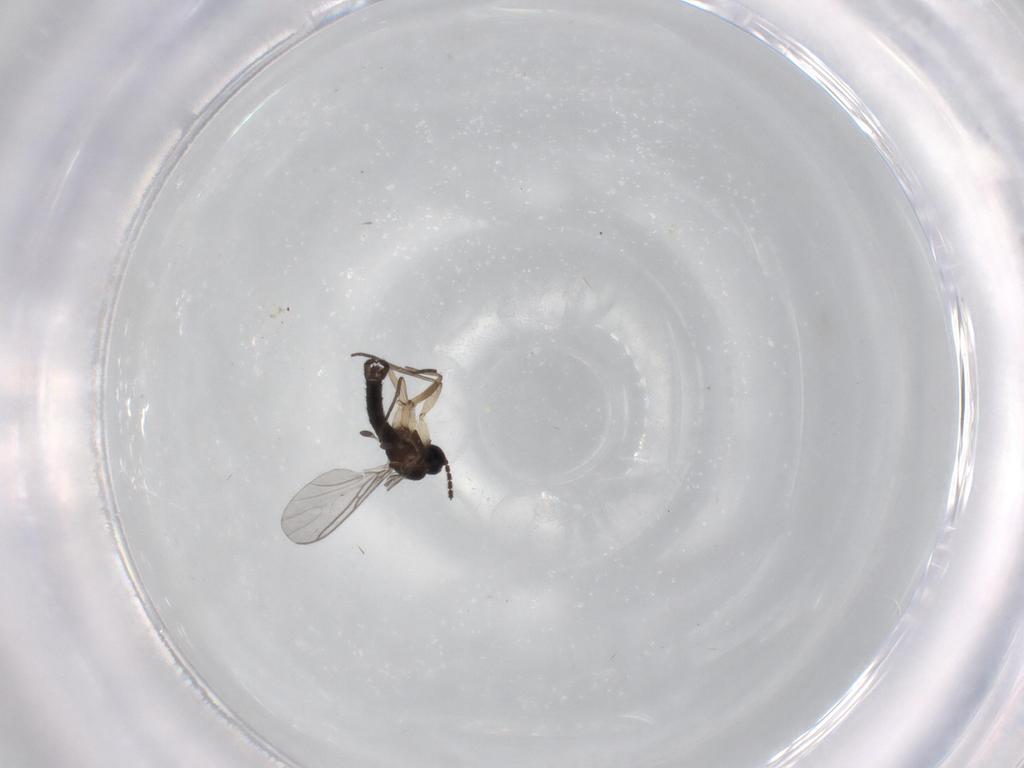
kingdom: Animalia
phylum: Arthropoda
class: Insecta
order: Diptera
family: Sciaridae
